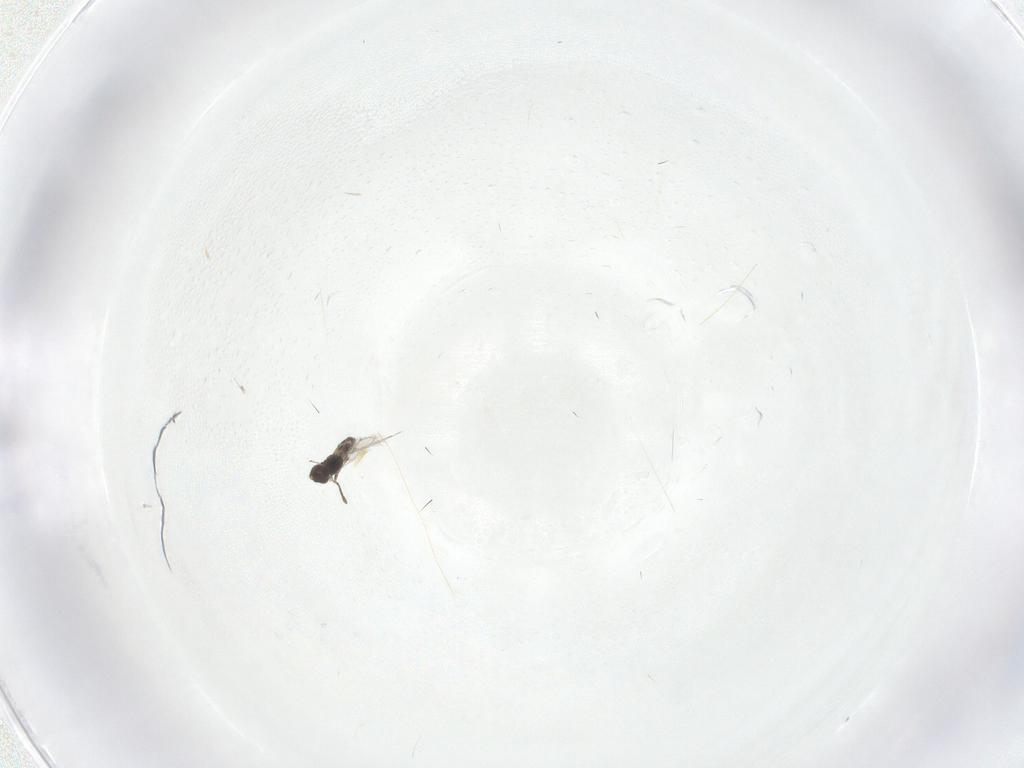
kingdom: Animalia
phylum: Arthropoda
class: Insecta
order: Hymenoptera
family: Mymaridae
